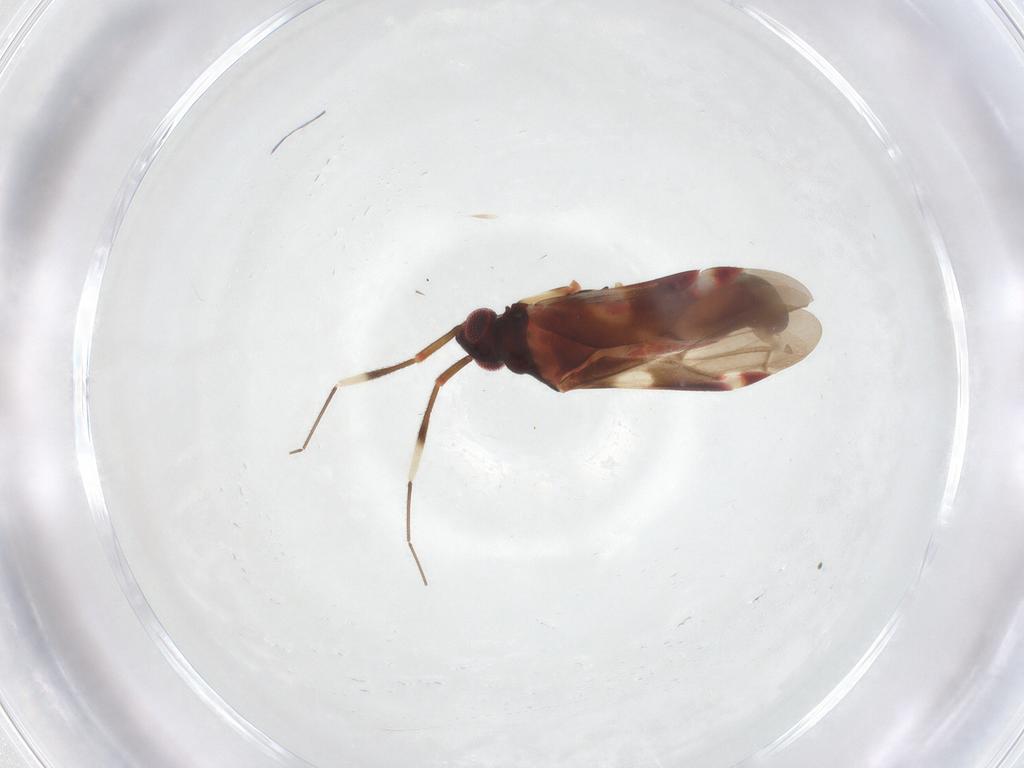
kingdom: Animalia
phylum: Arthropoda
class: Insecta
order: Hemiptera
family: Miridae
